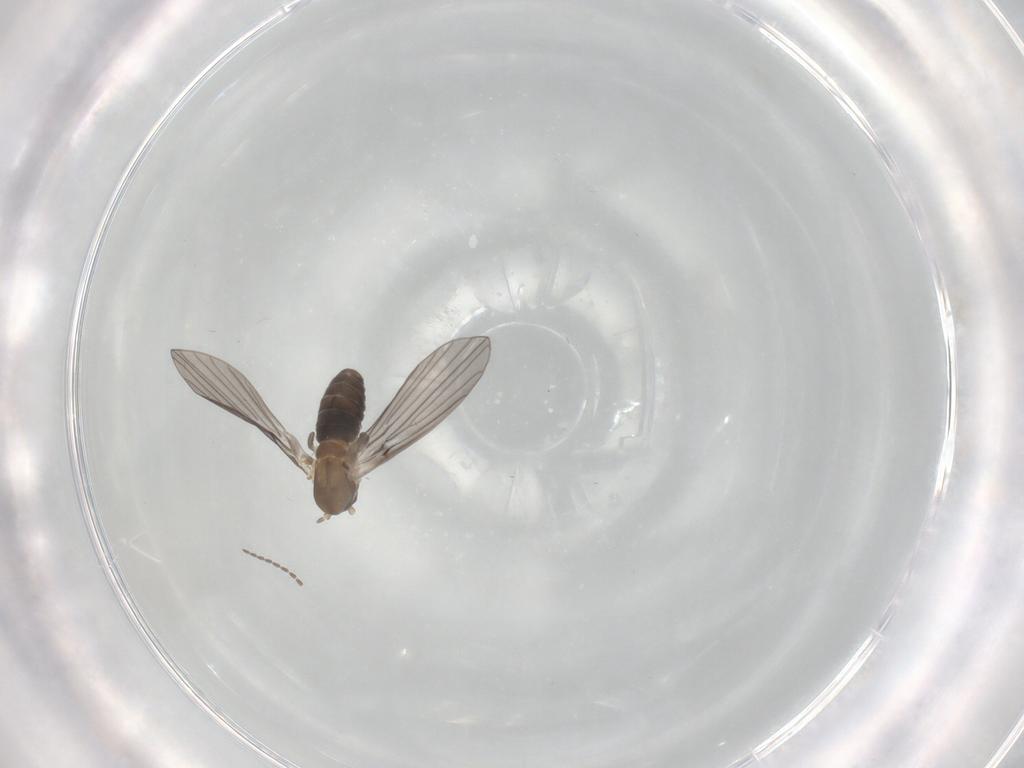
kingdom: Animalia
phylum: Arthropoda
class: Insecta
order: Diptera
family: Psychodidae
